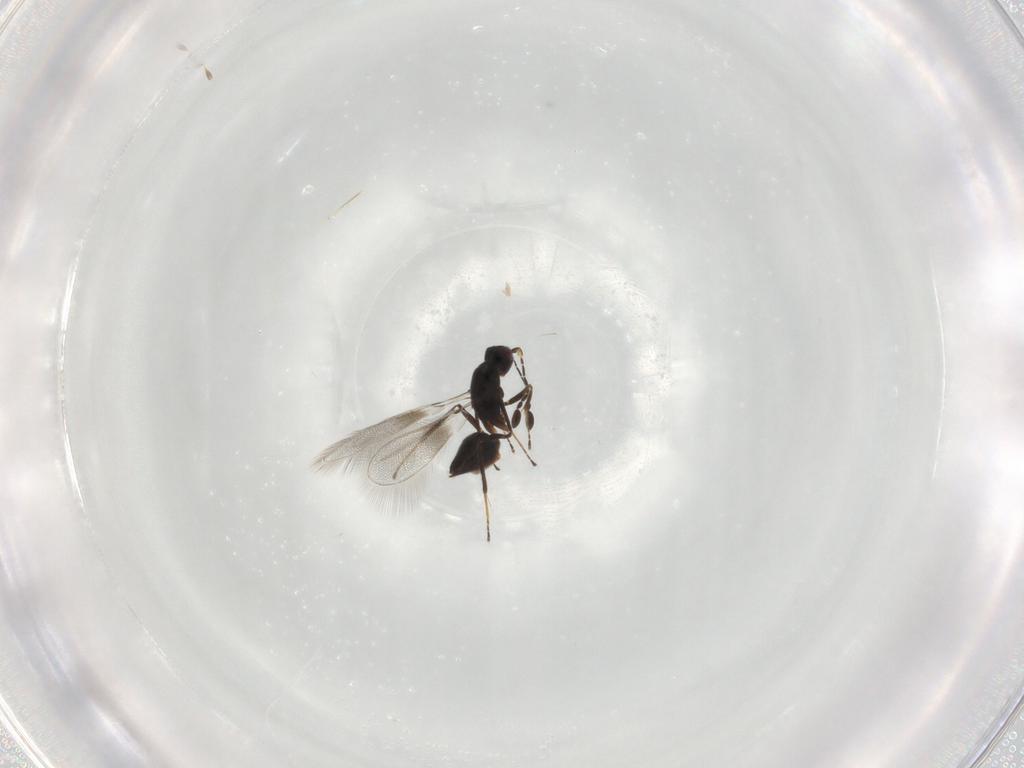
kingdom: Animalia
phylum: Arthropoda
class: Insecta
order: Hymenoptera
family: Mymaridae
